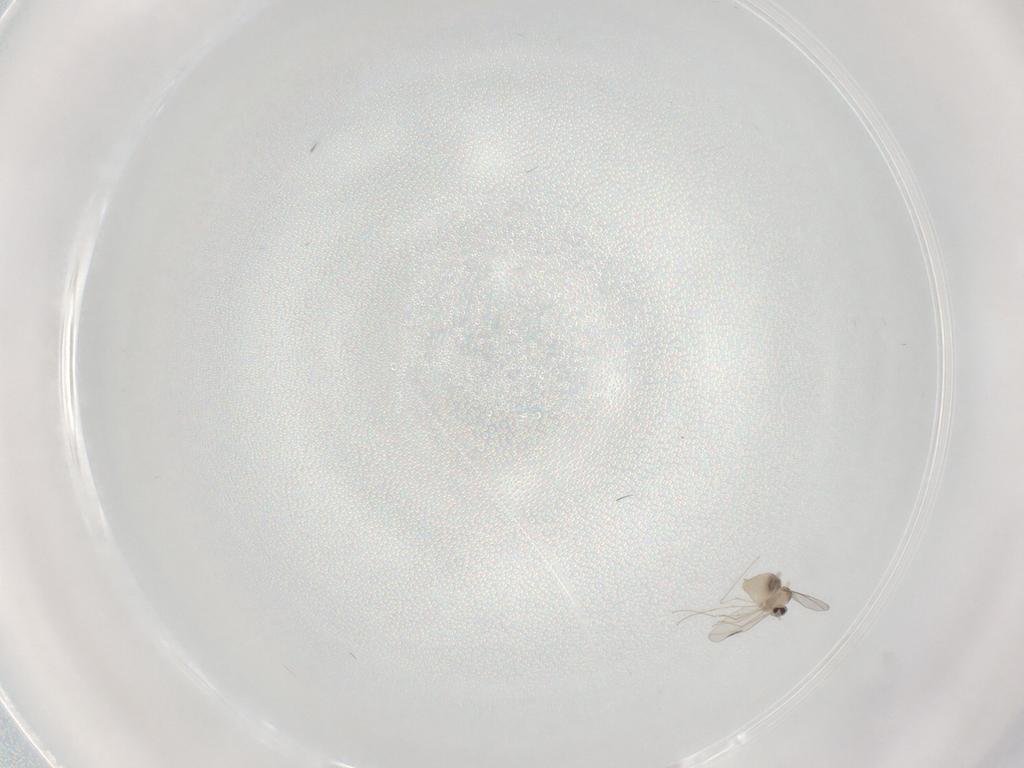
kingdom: Animalia
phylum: Arthropoda
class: Insecta
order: Diptera
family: Cecidomyiidae
